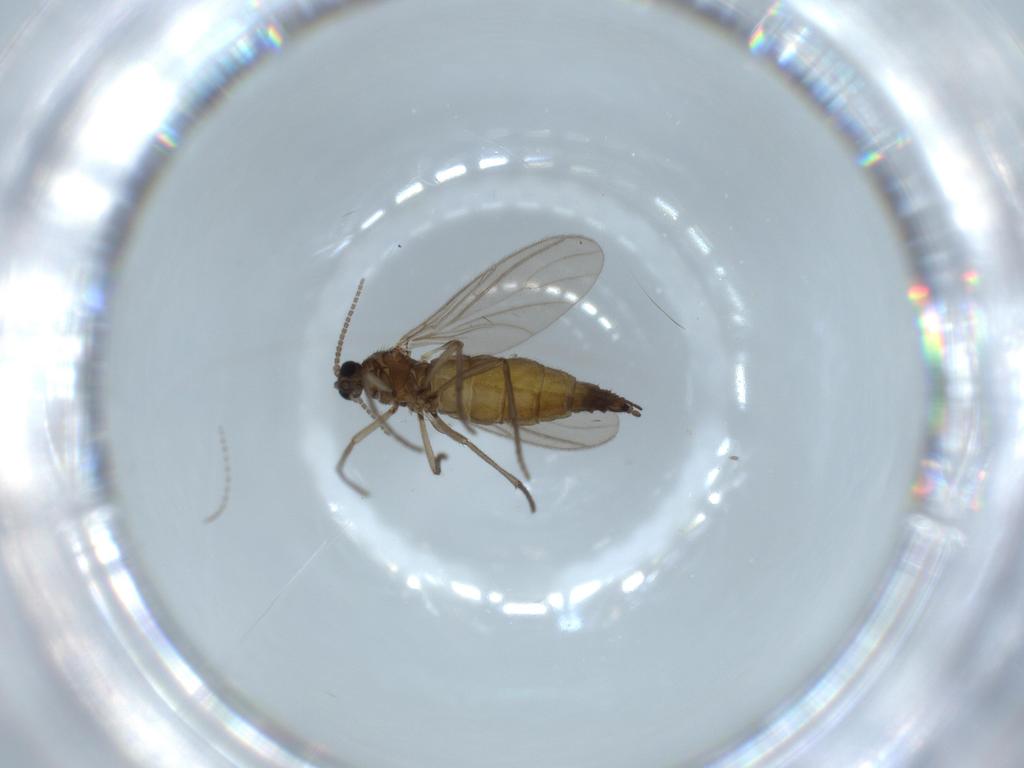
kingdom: Animalia
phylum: Arthropoda
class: Insecta
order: Diptera
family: Sciaridae
